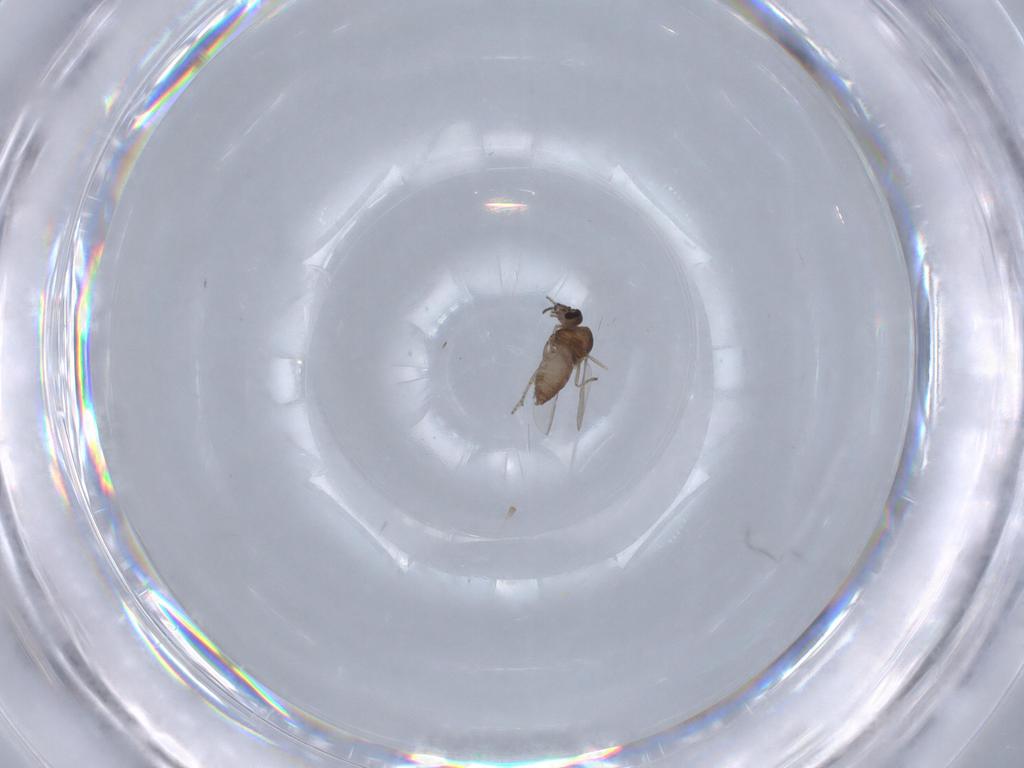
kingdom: Animalia
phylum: Arthropoda
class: Insecta
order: Diptera
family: Ceratopogonidae
